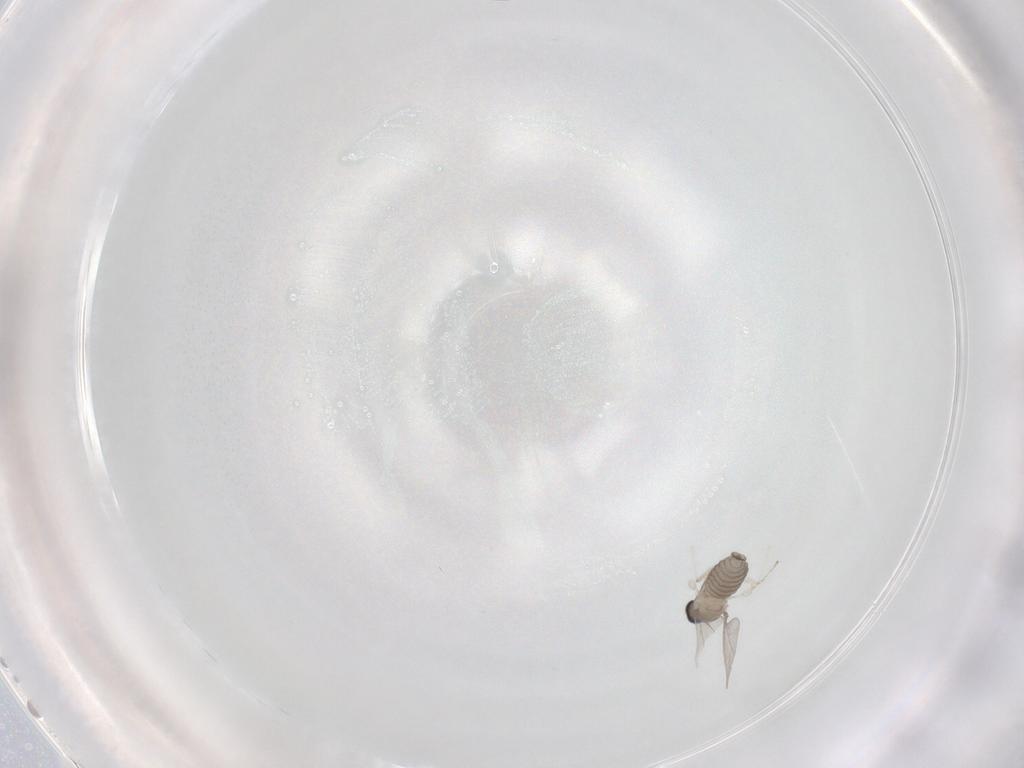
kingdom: Animalia
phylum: Arthropoda
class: Insecta
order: Diptera
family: Cecidomyiidae
